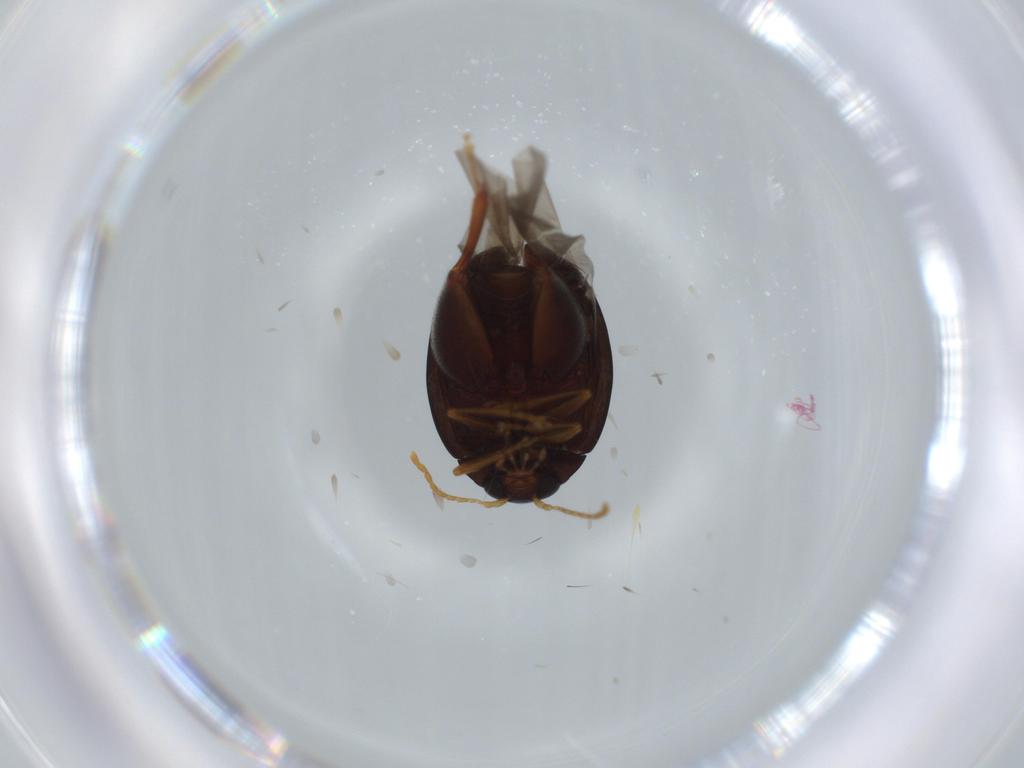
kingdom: Animalia
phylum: Arthropoda
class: Insecta
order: Coleoptera
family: Chrysomelidae
